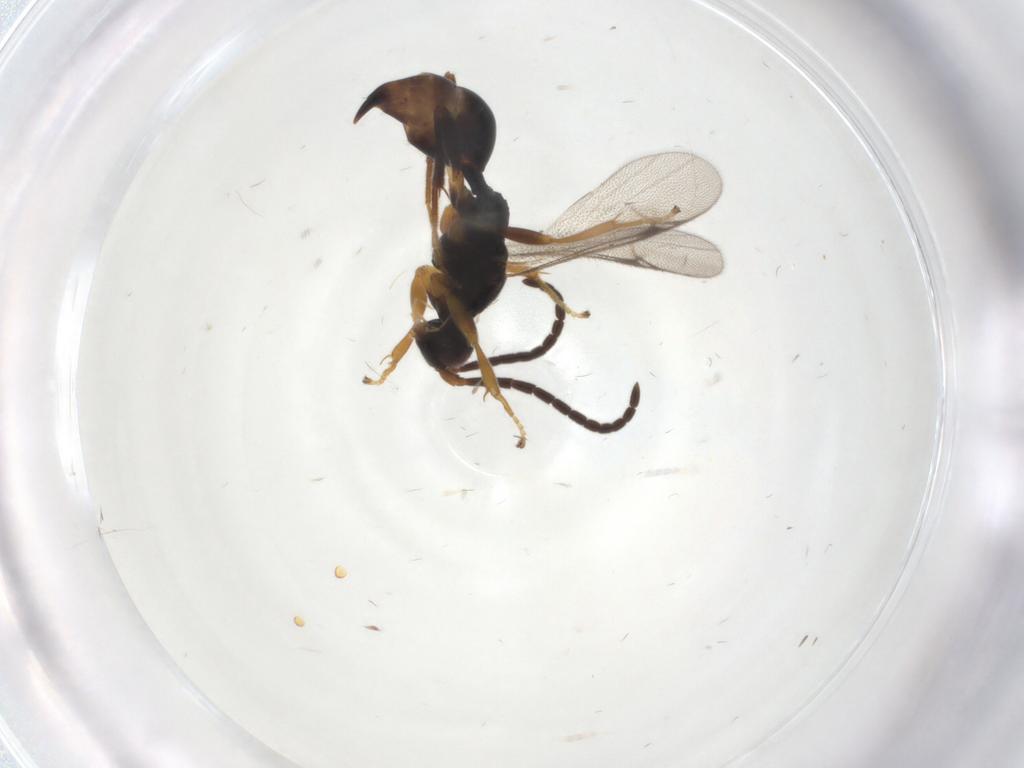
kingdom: Animalia
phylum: Arthropoda
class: Insecta
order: Hymenoptera
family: Proctotrupidae
